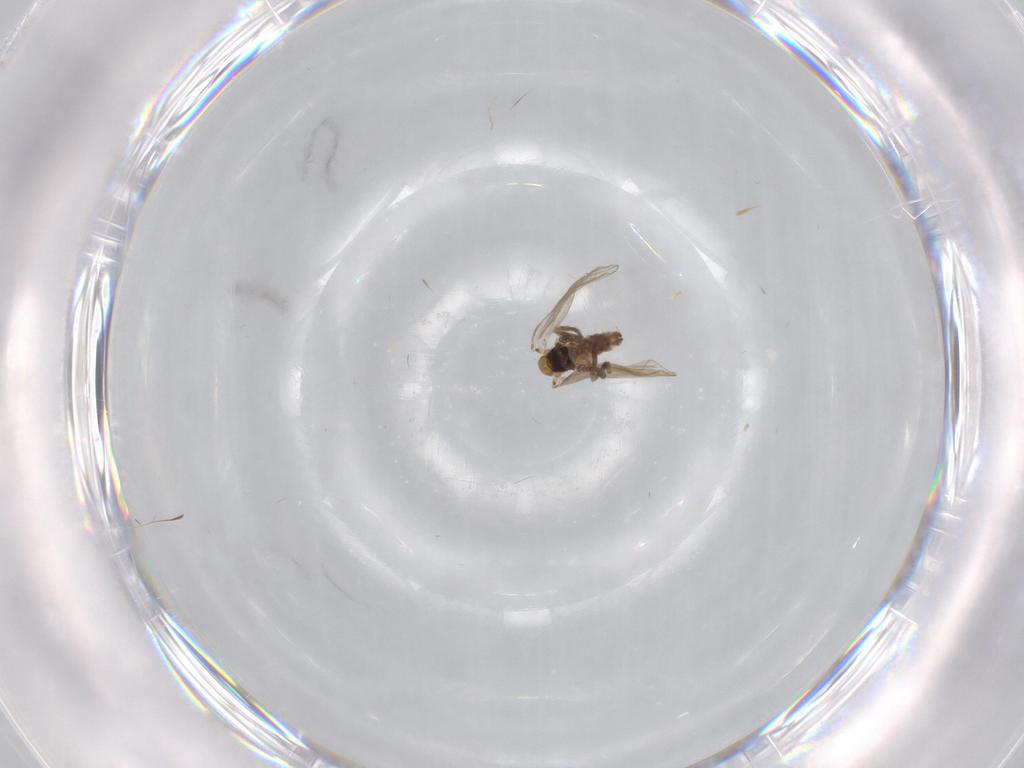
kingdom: Animalia
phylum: Arthropoda
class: Insecta
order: Diptera
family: Psychodidae
